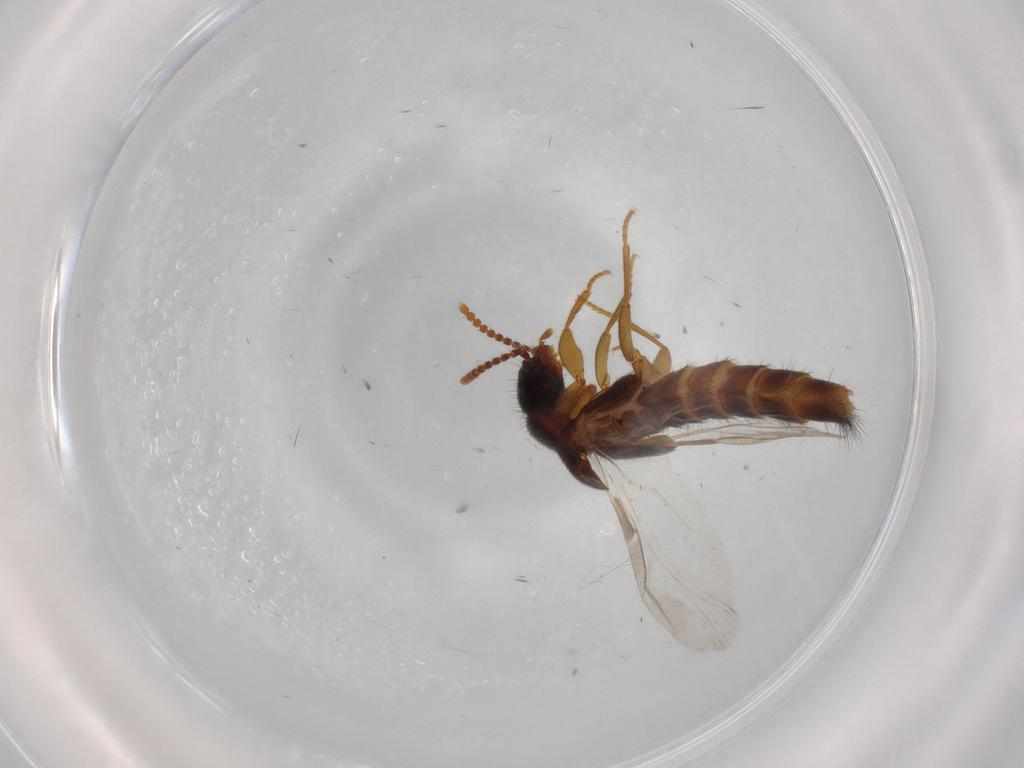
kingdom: Animalia
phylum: Arthropoda
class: Insecta
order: Coleoptera
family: Staphylinidae
